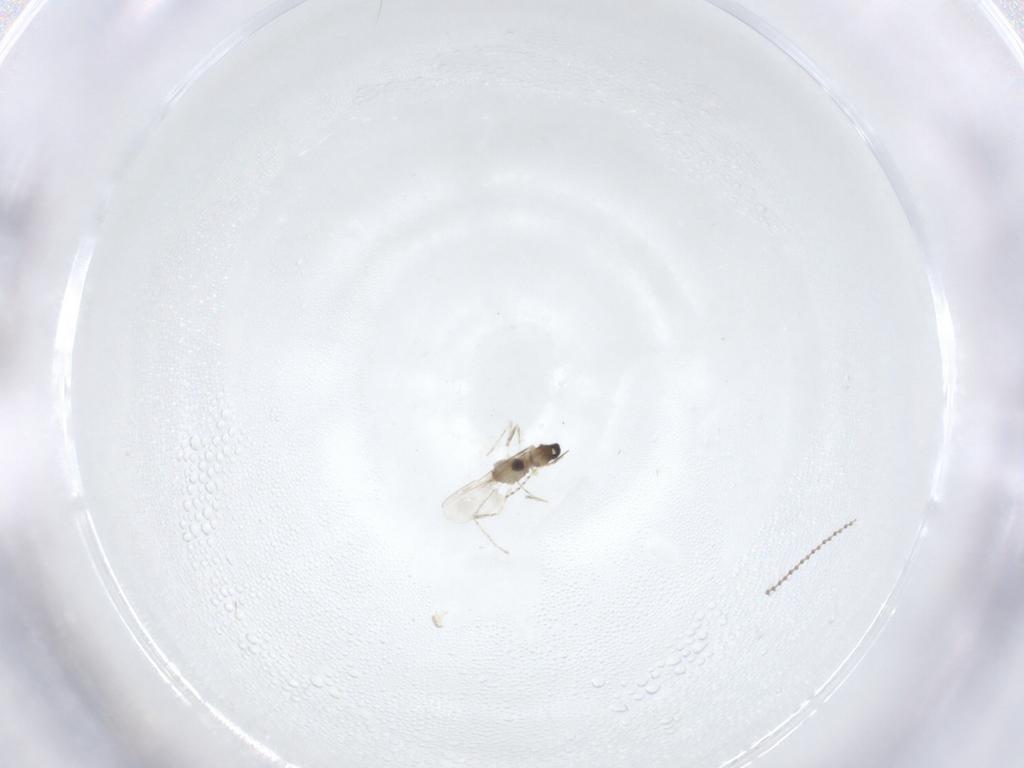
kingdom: Animalia
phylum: Arthropoda
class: Insecta
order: Diptera
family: Cecidomyiidae
